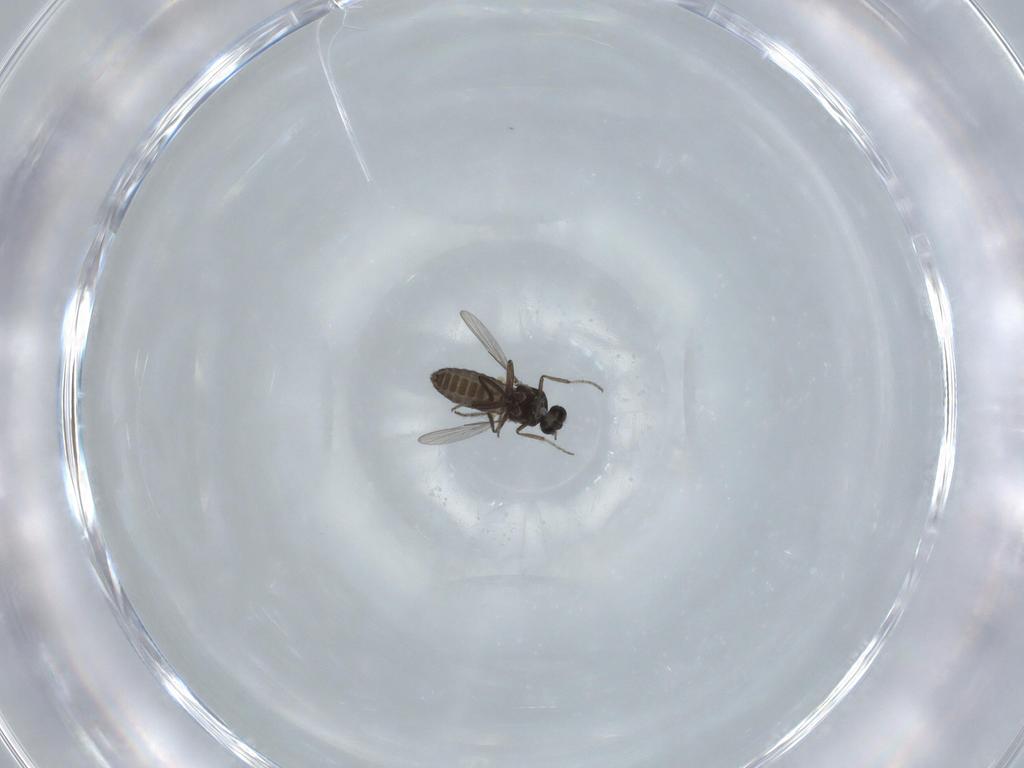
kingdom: Animalia
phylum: Arthropoda
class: Insecta
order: Diptera
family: Ceratopogonidae
